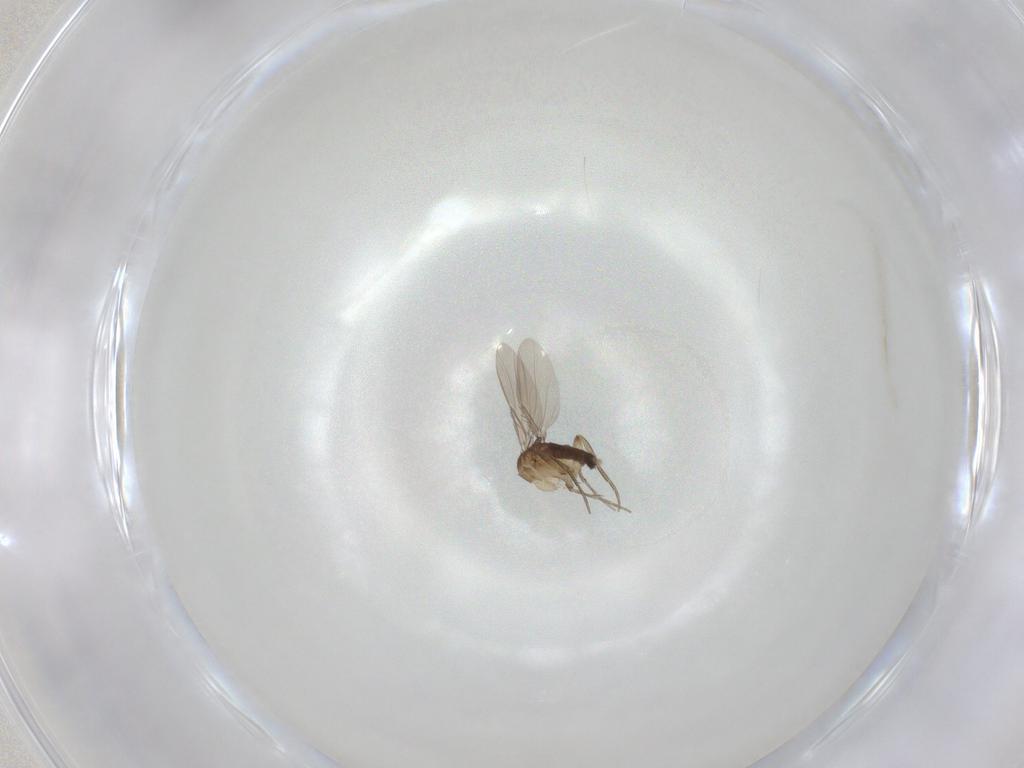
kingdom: Animalia
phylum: Arthropoda
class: Insecta
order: Diptera
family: Phoridae
